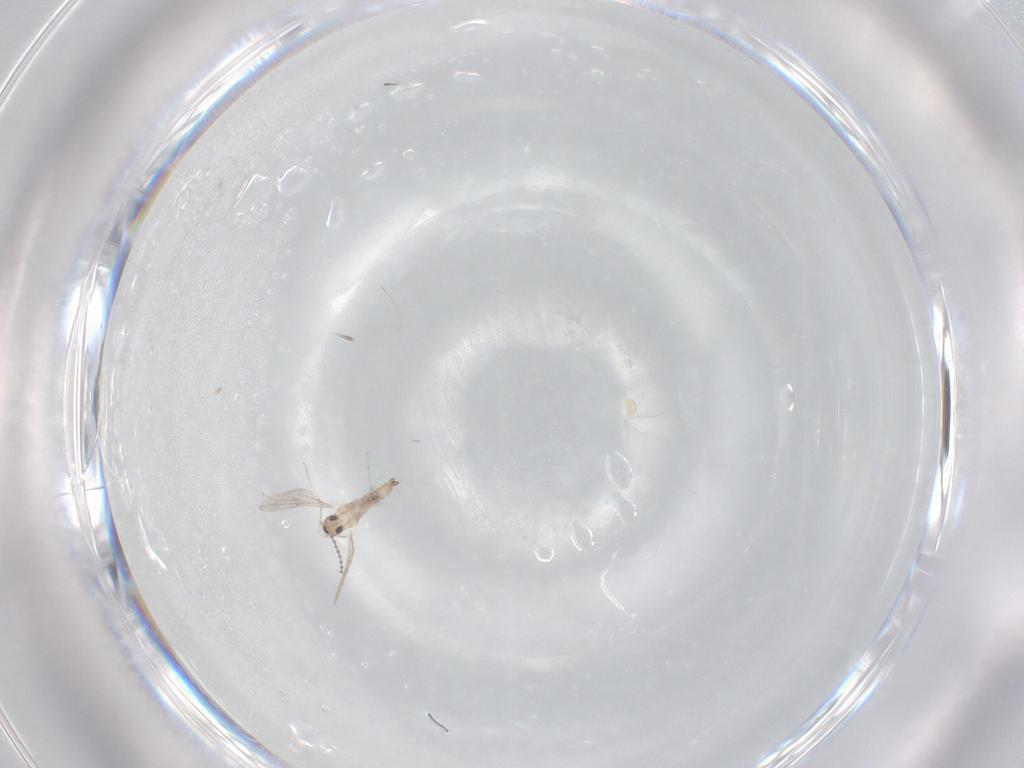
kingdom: Animalia
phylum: Arthropoda
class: Insecta
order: Diptera
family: Cecidomyiidae
